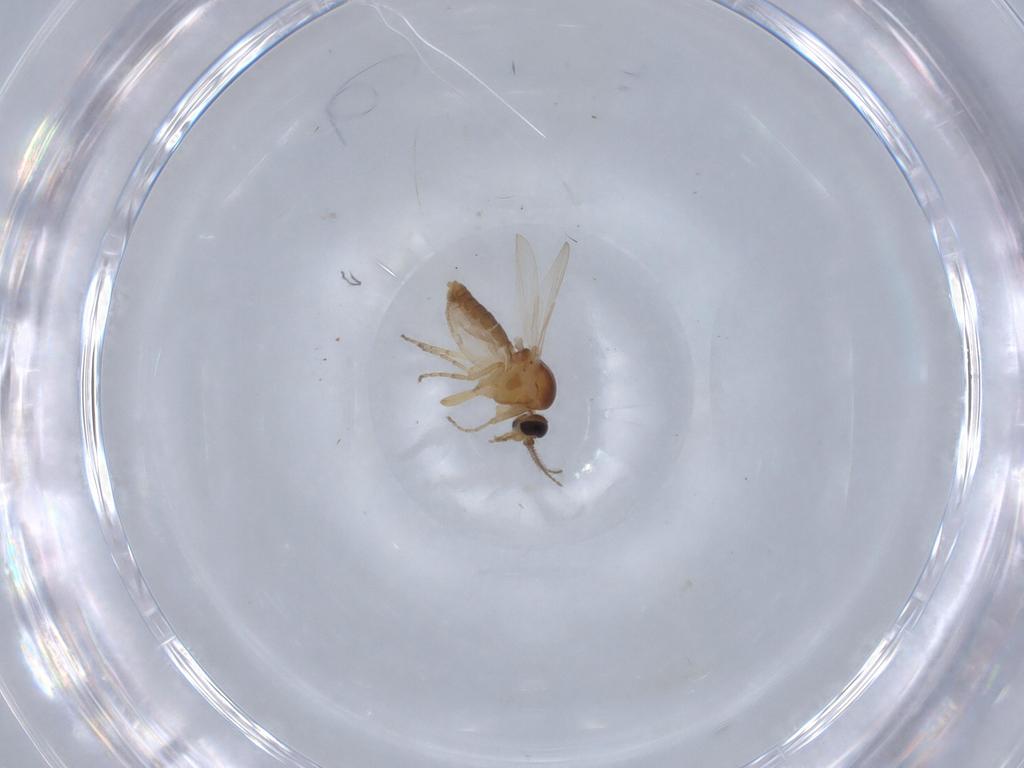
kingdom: Animalia
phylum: Arthropoda
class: Insecta
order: Diptera
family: Ceratopogonidae
